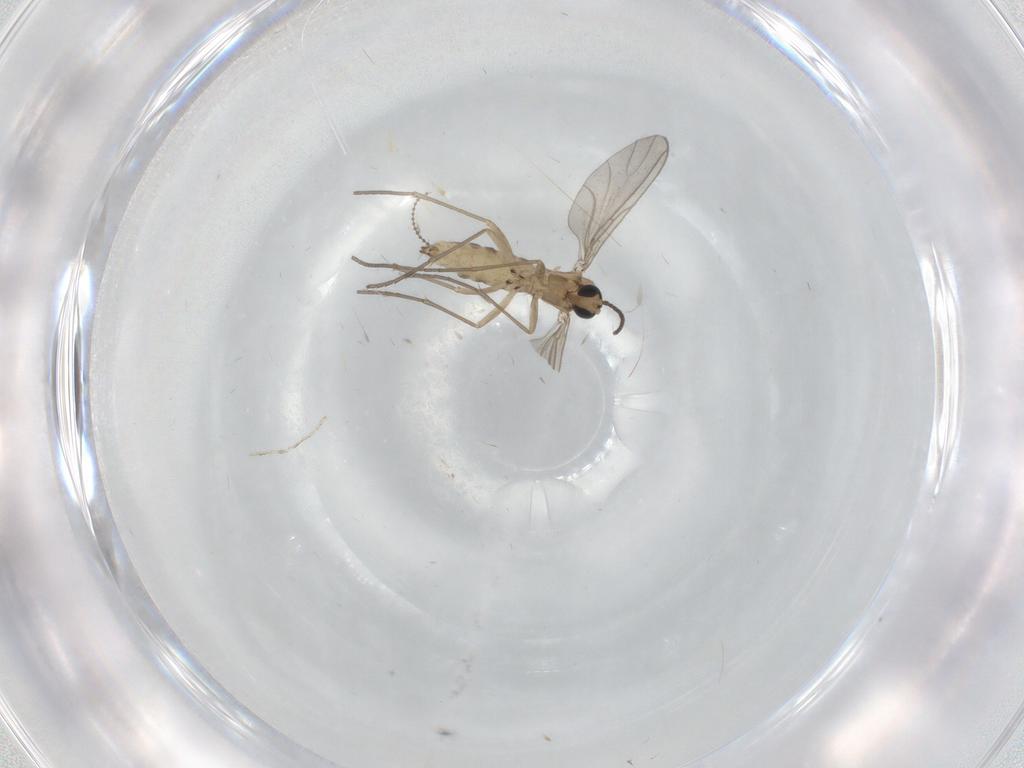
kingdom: Animalia
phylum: Arthropoda
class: Insecta
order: Diptera
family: Sciaridae
